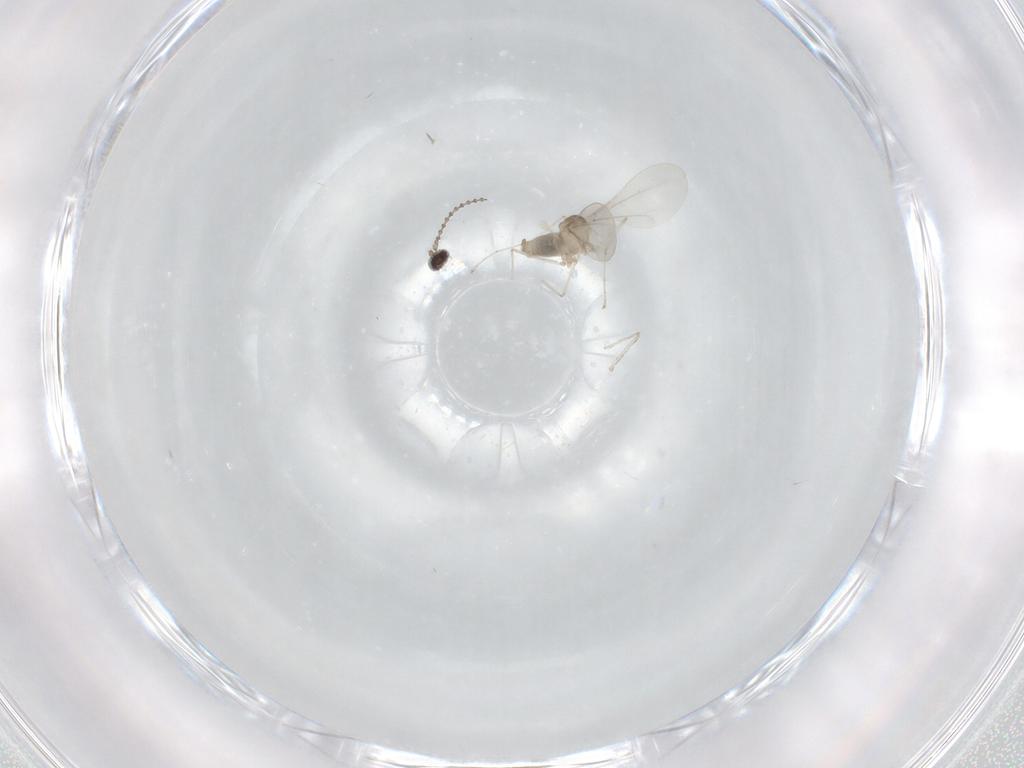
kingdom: Animalia
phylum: Arthropoda
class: Insecta
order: Diptera
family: Cecidomyiidae
